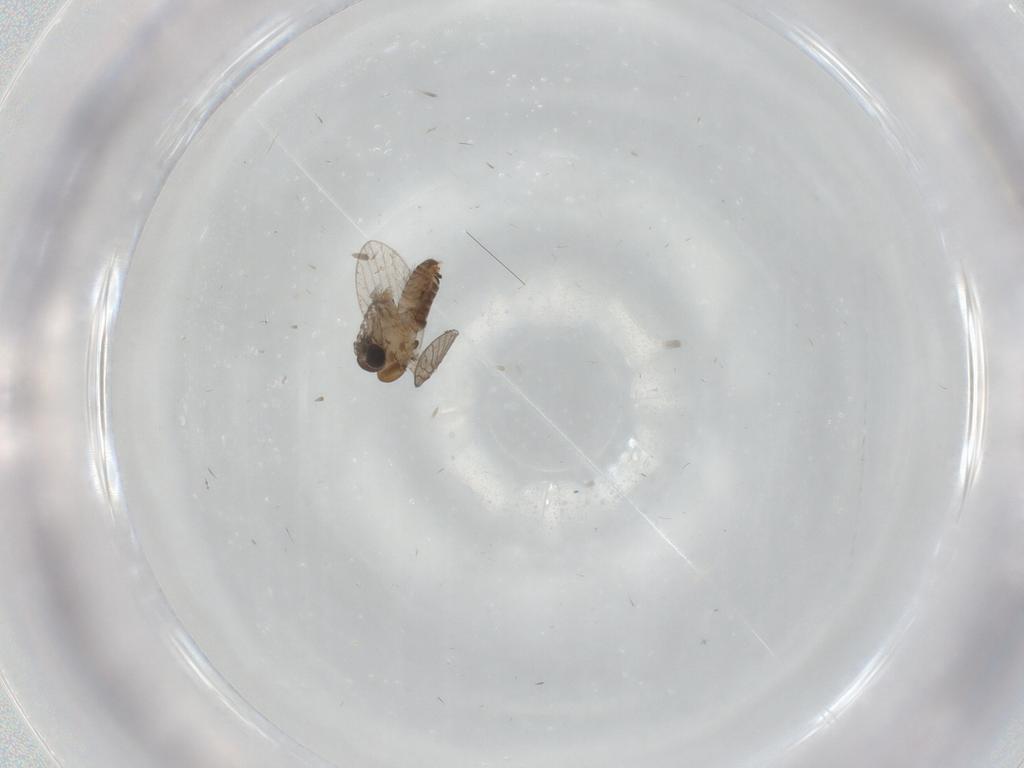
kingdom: Animalia
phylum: Arthropoda
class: Insecta
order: Diptera
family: Psychodidae
